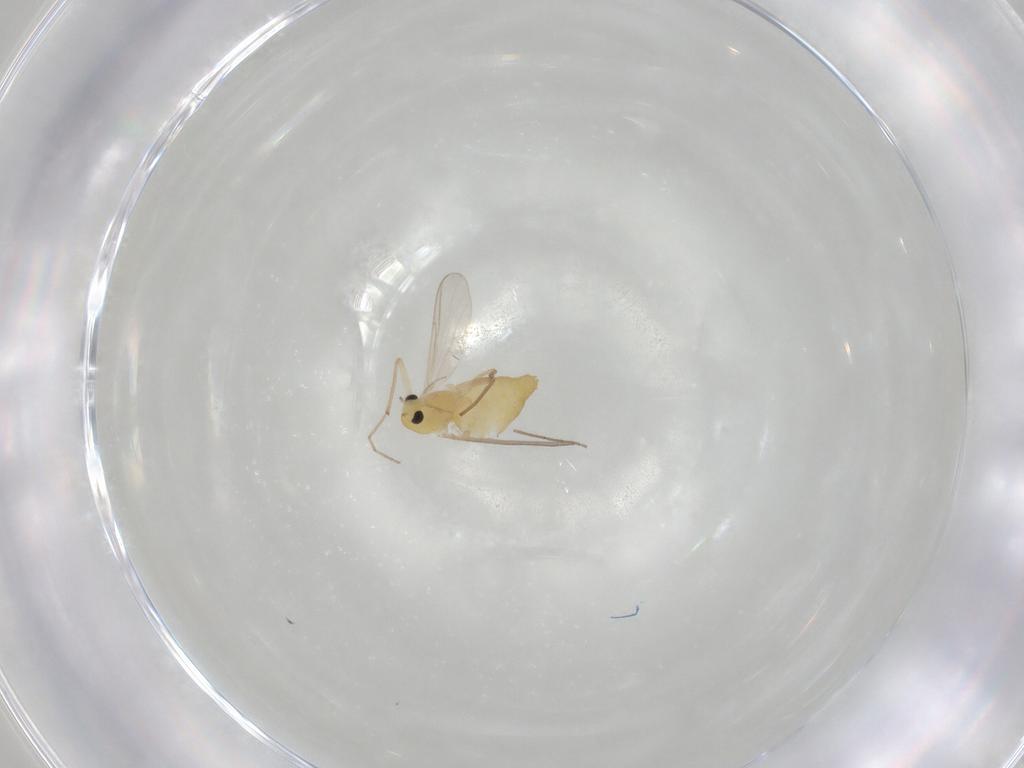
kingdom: Animalia
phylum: Arthropoda
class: Insecta
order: Diptera
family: Chironomidae
